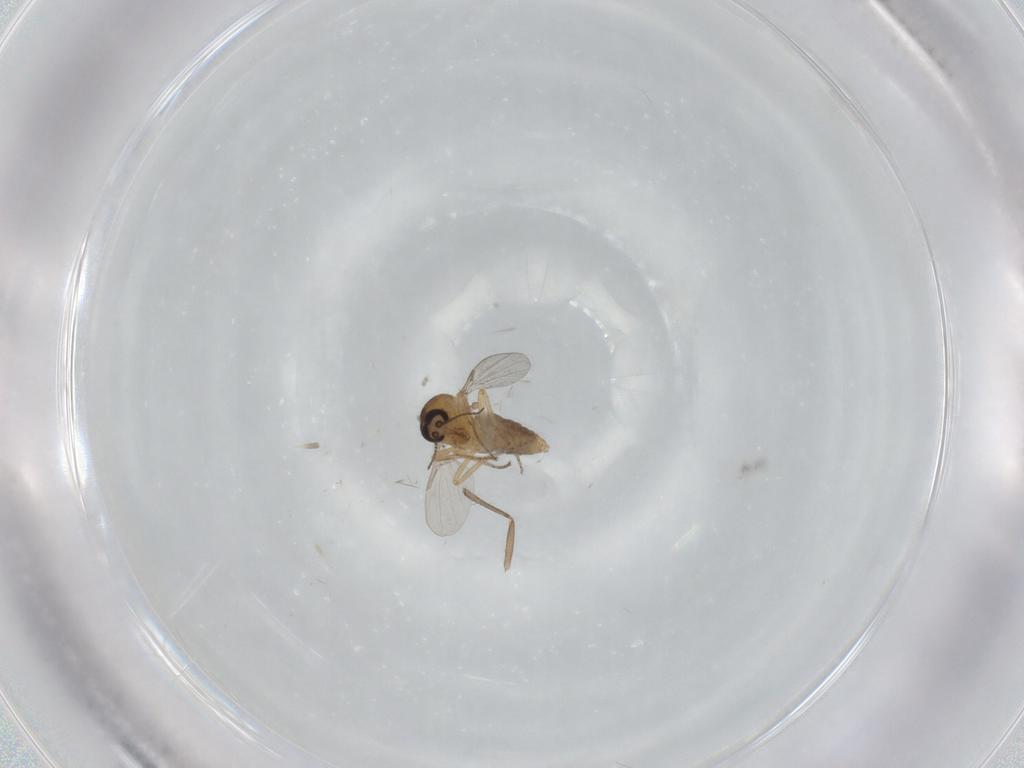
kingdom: Animalia
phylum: Arthropoda
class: Insecta
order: Diptera
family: Ceratopogonidae
